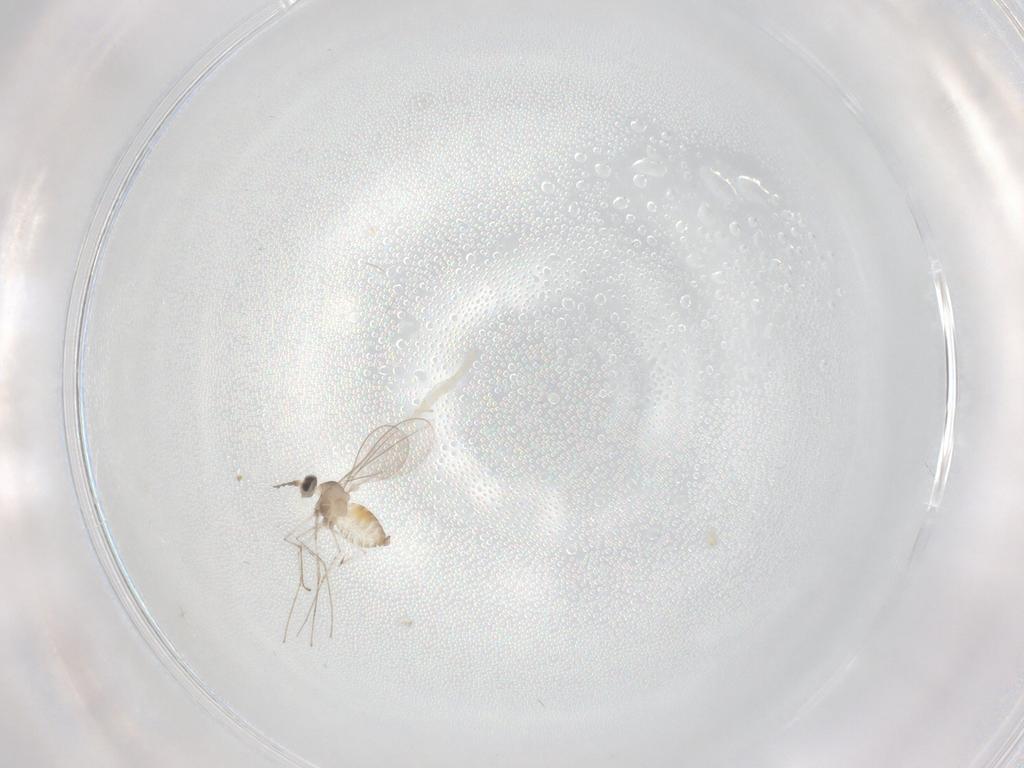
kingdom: Animalia
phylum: Arthropoda
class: Insecta
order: Diptera
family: Cecidomyiidae
